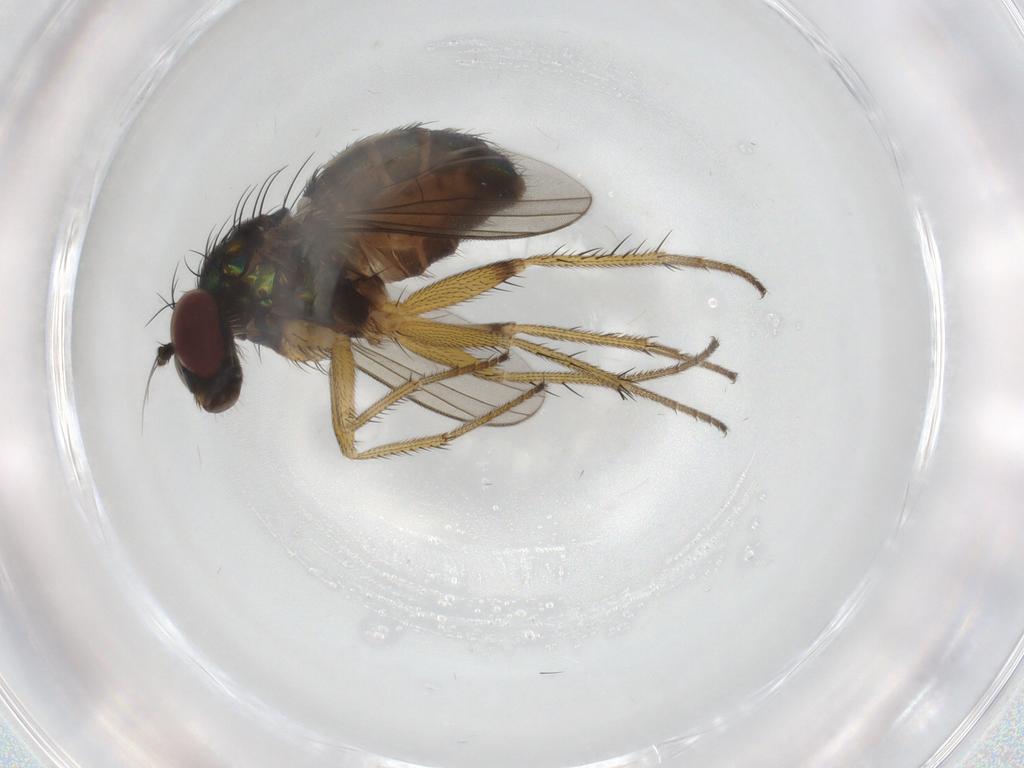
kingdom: Animalia
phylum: Arthropoda
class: Insecta
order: Diptera
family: Dolichopodidae
